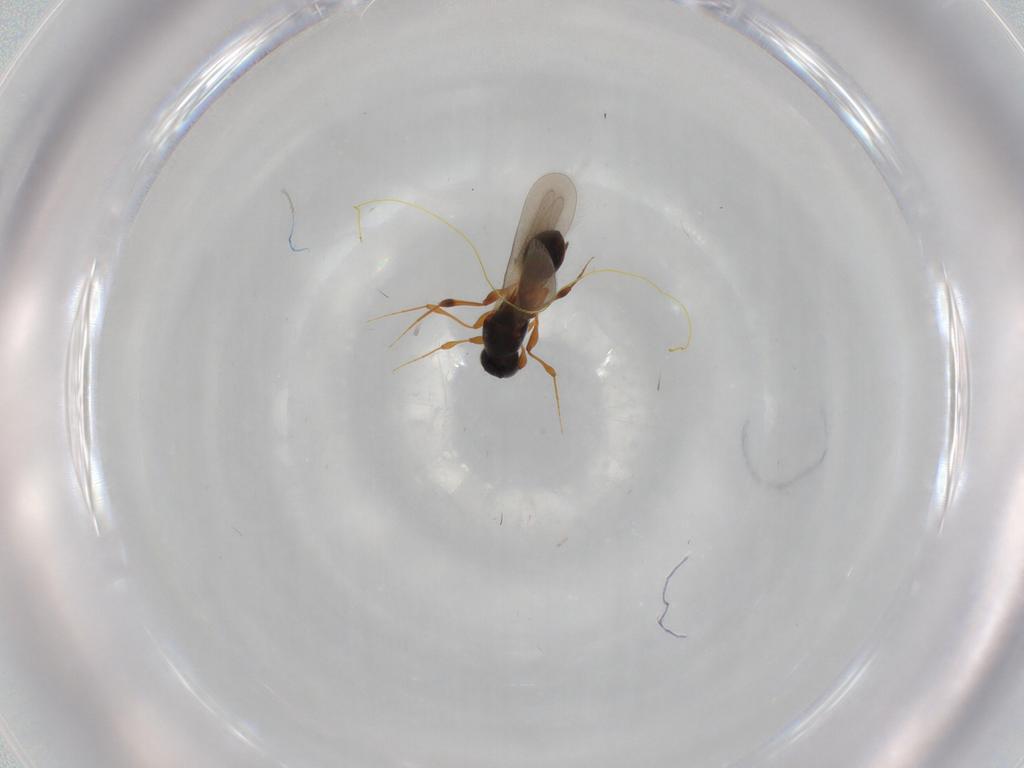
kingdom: Animalia
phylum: Arthropoda
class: Insecta
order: Hymenoptera
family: Platygastridae
